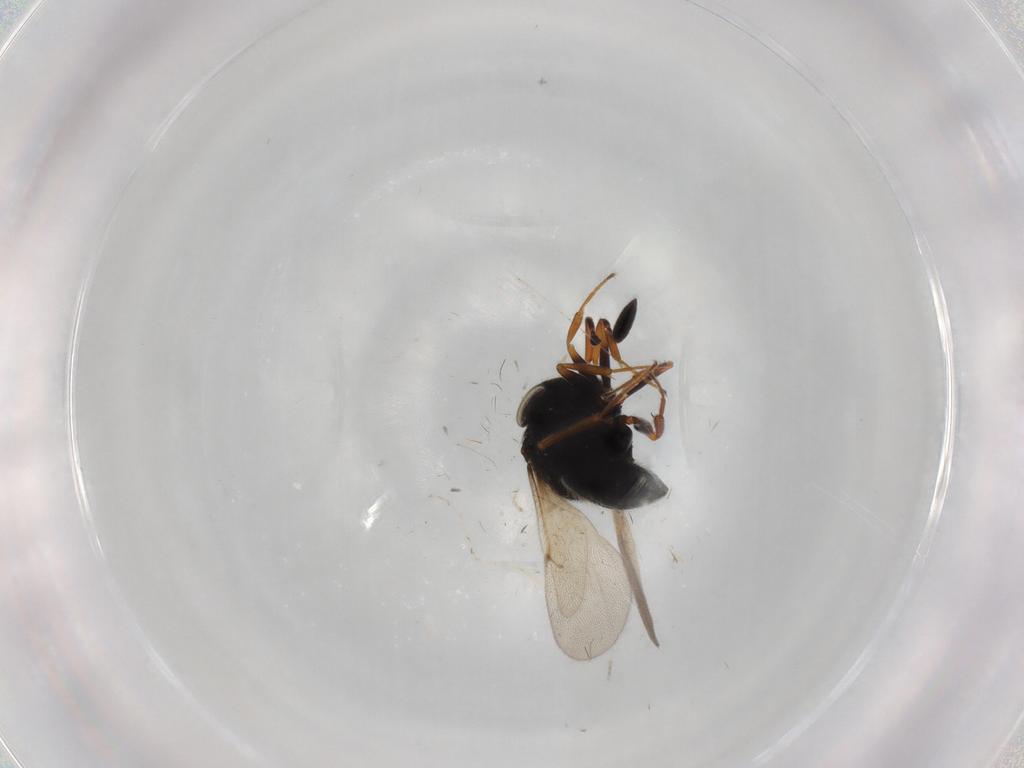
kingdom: Animalia
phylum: Arthropoda
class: Insecta
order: Hymenoptera
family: Scelionidae
